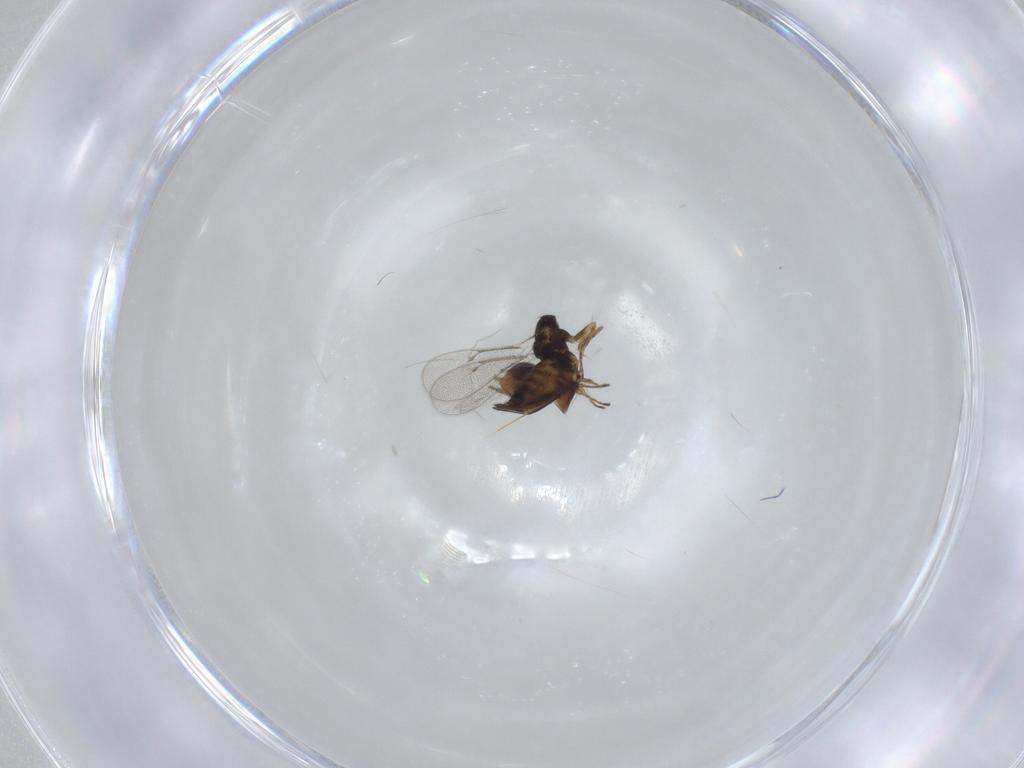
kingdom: Animalia
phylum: Arthropoda
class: Insecta
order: Hymenoptera
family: Eulophidae
